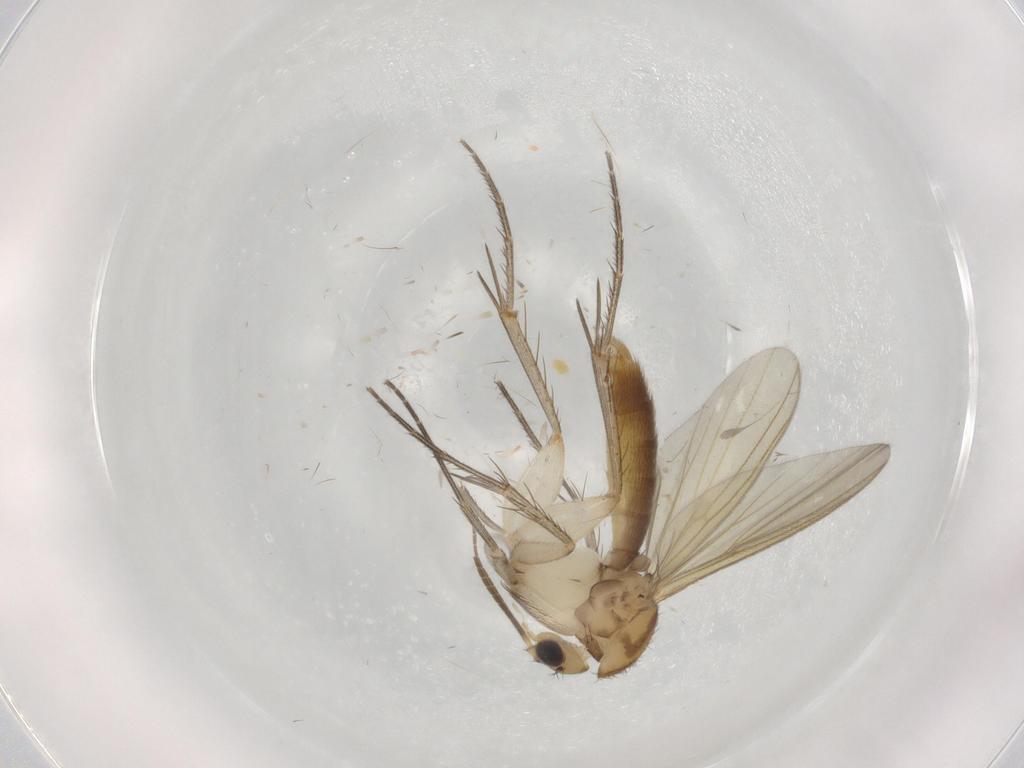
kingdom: Animalia
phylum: Arthropoda
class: Insecta
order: Diptera
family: Mycetophilidae
